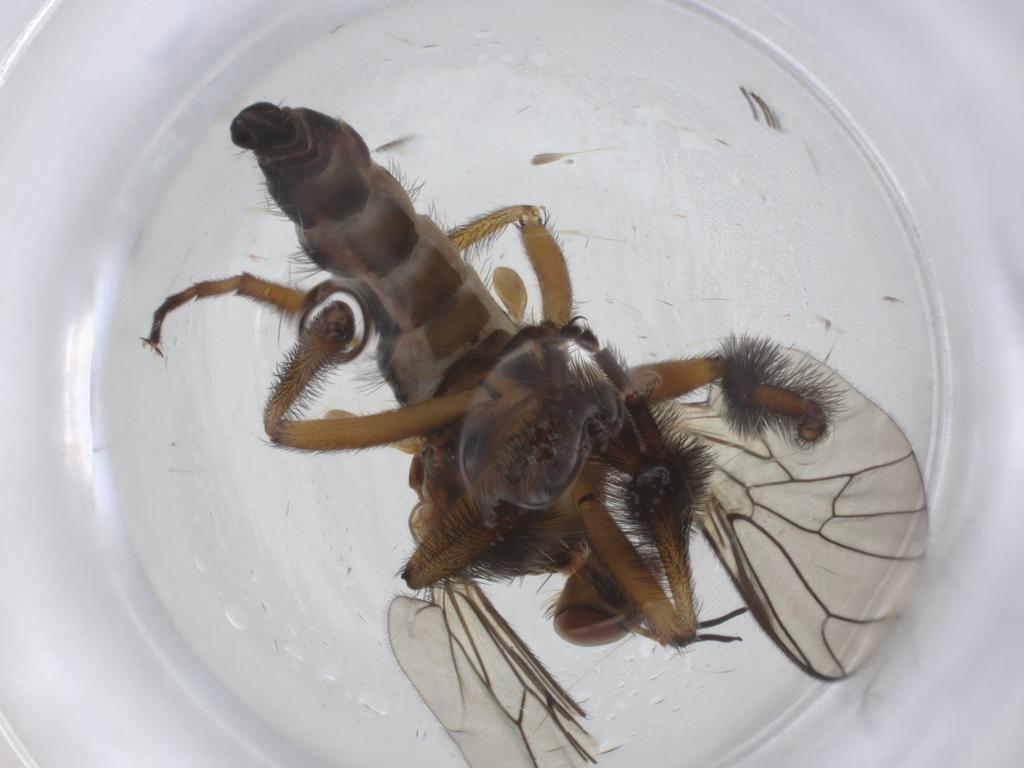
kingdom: Animalia
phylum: Arthropoda
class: Insecta
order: Diptera
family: Empididae
